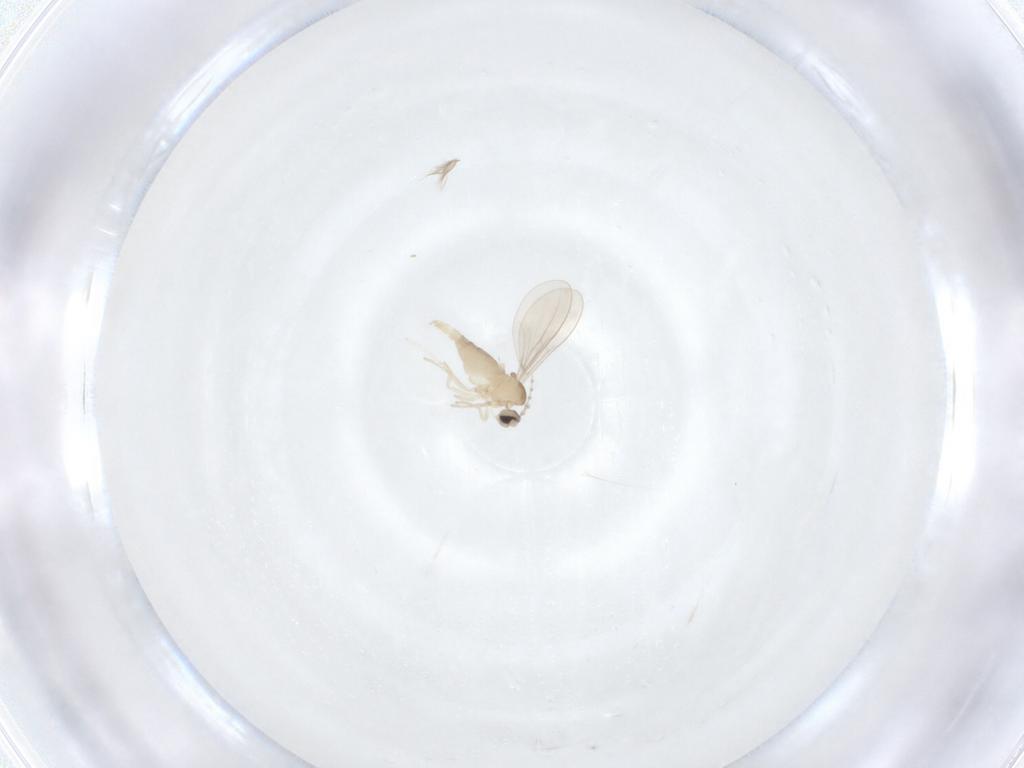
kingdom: Animalia
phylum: Arthropoda
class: Insecta
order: Diptera
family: Cecidomyiidae
